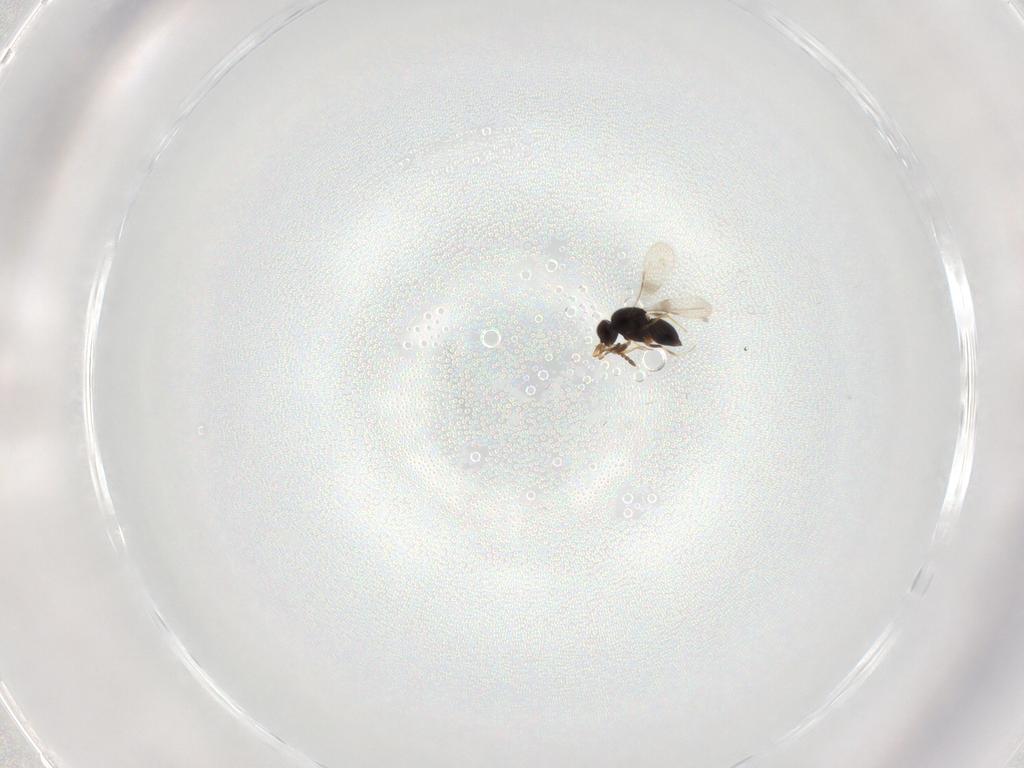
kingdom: Animalia
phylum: Arthropoda
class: Insecta
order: Hymenoptera
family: Ceraphronidae
